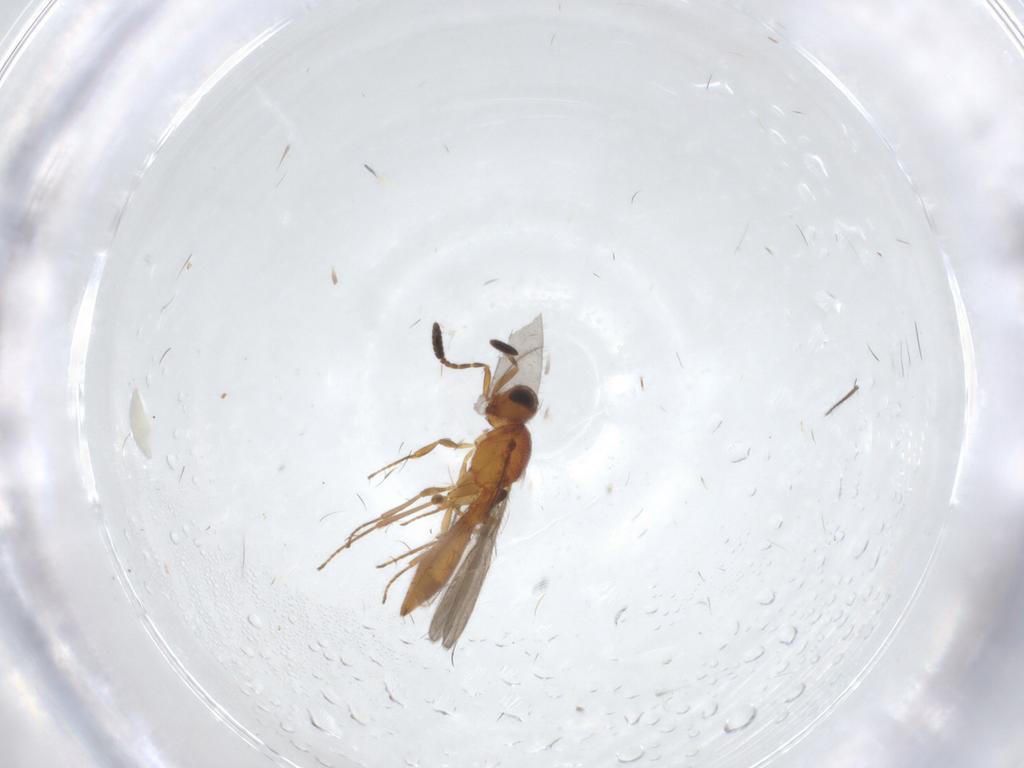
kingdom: Animalia
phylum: Arthropoda
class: Insecta
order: Hymenoptera
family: Scelionidae
